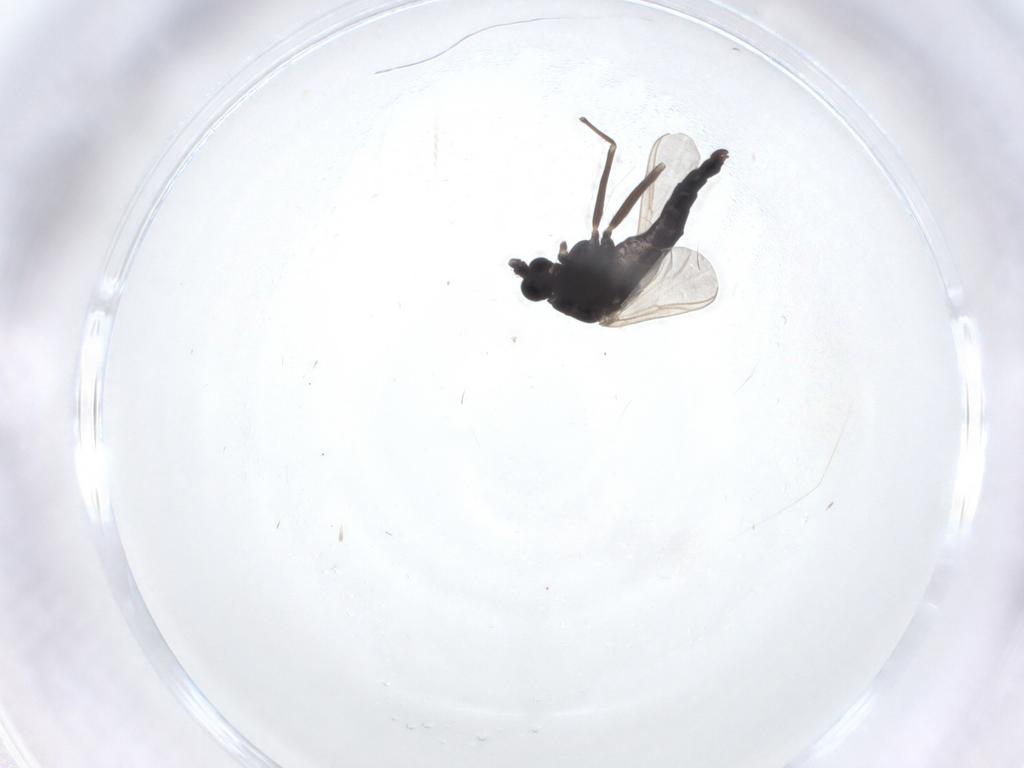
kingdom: Animalia
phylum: Arthropoda
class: Insecta
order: Diptera
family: Chironomidae
